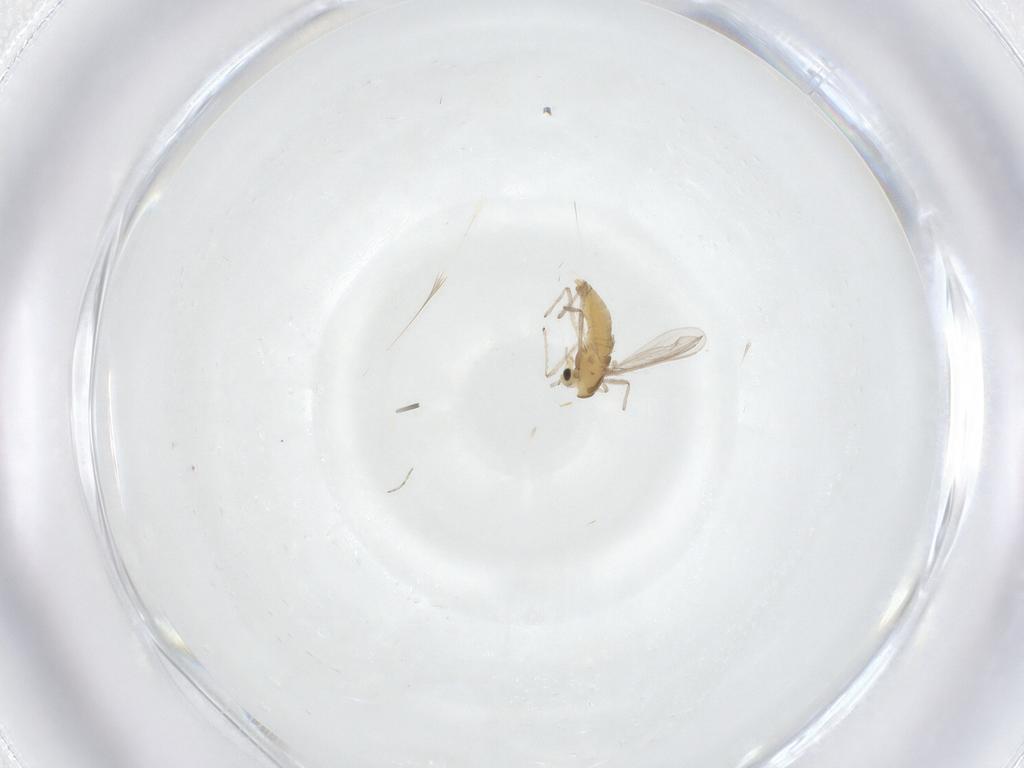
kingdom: Animalia
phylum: Arthropoda
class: Insecta
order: Diptera
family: Chironomidae
